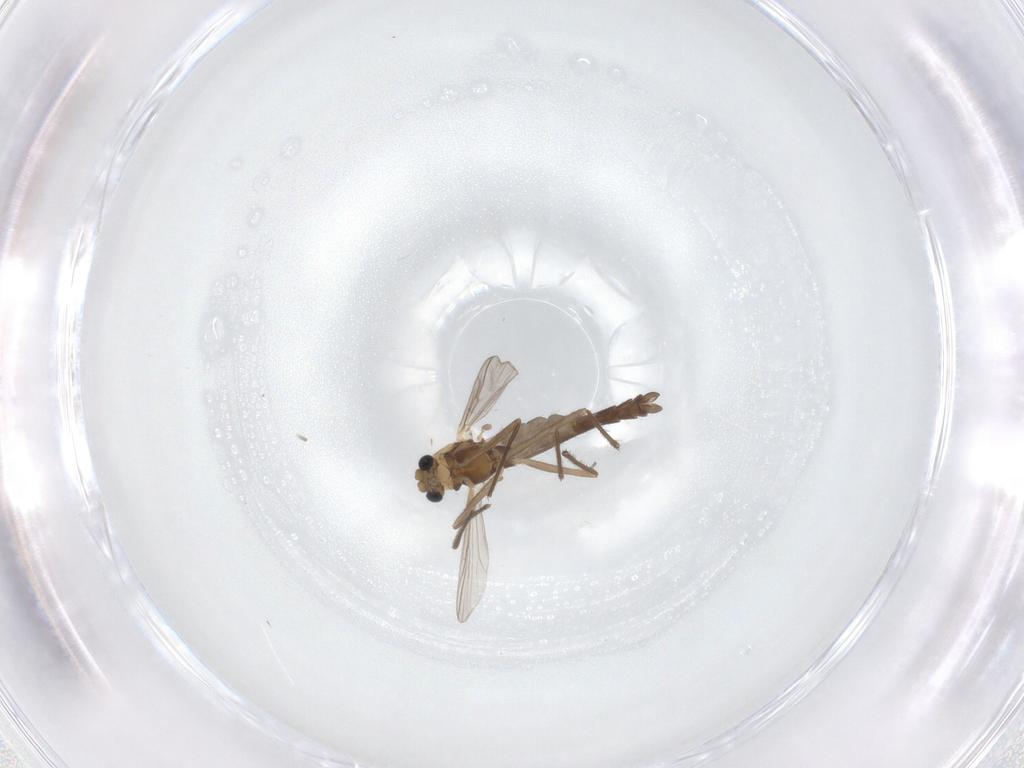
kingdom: Animalia
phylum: Arthropoda
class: Insecta
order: Diptera
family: Chironomidae
